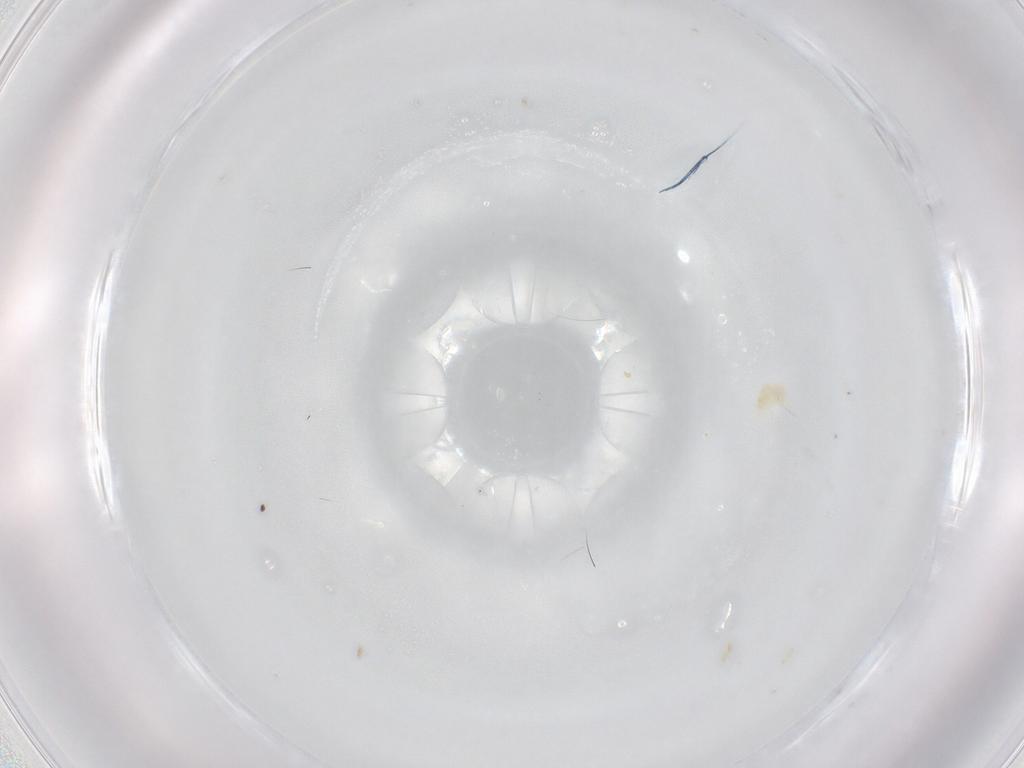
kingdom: Animalia
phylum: Arthropoda
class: Arachnida
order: Trombidiformes
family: Eupodidae
